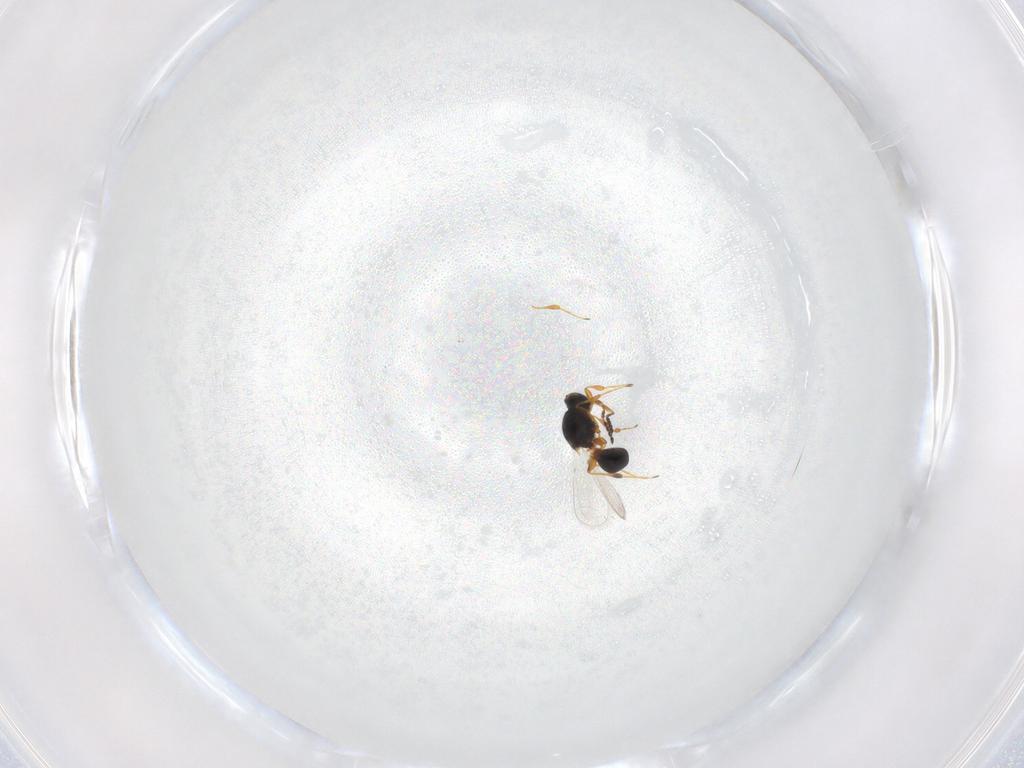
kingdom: Animalia
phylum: Arthropoda
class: Insecta
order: Hymenoptera
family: Platygastridae
